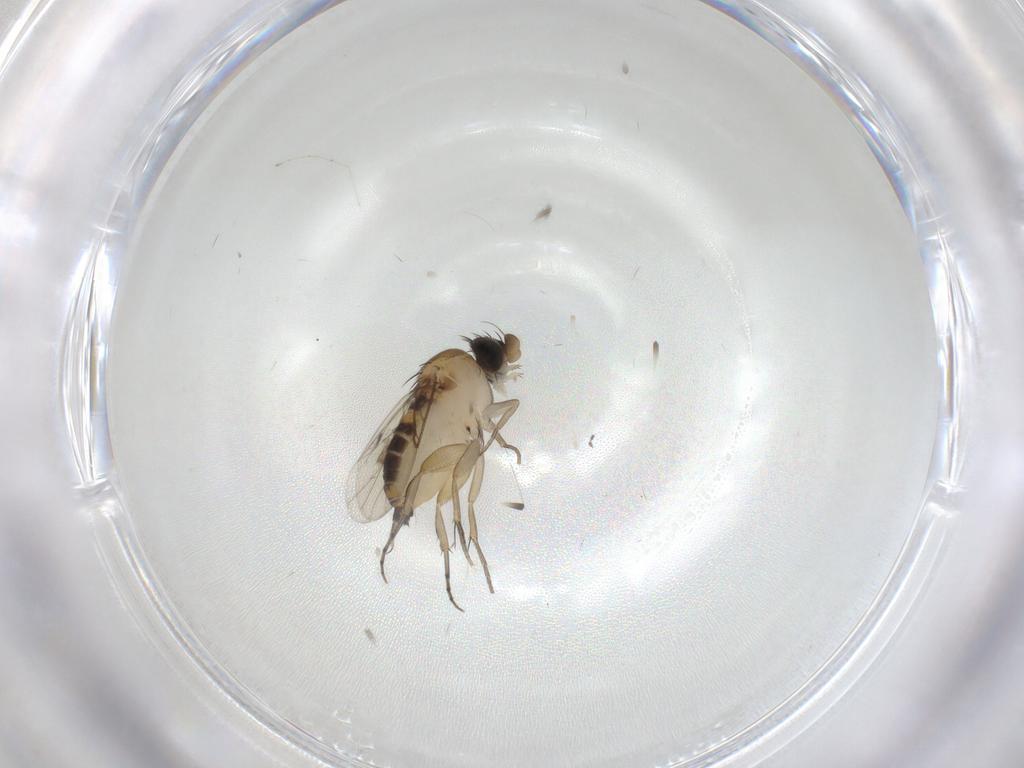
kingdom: Animalia
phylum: Arthropoda
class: Insecta
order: Diptera
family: Phoridae
